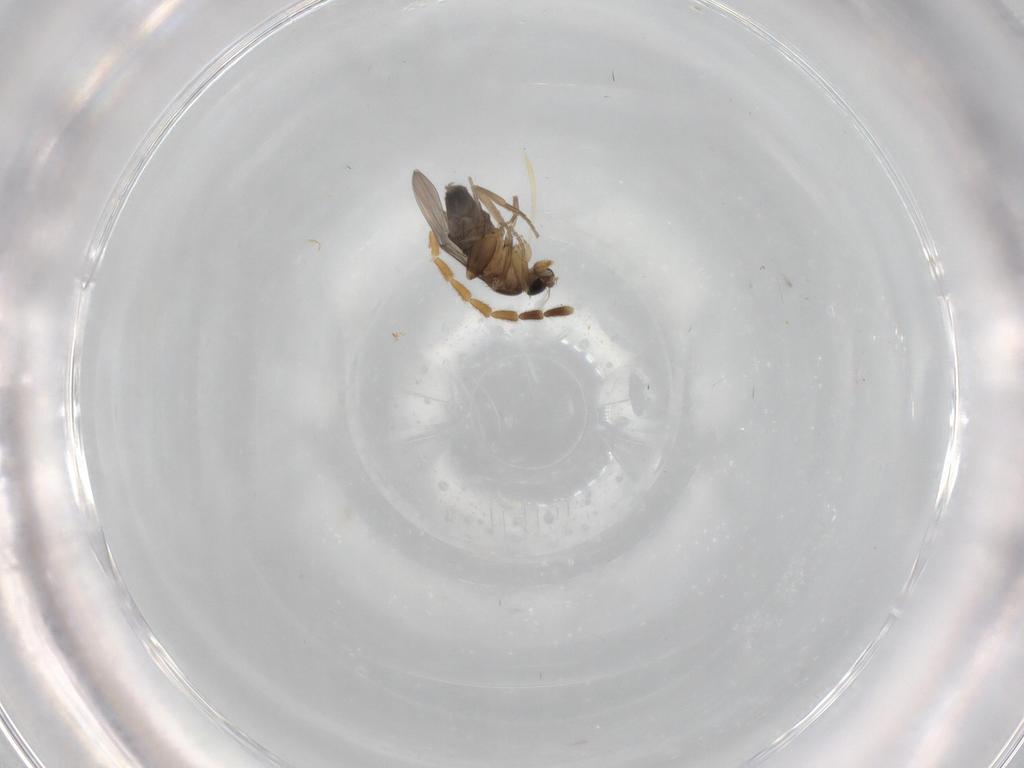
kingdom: Animalia
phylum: Arthropoda
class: Insecta
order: Diptera
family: Phoridae
